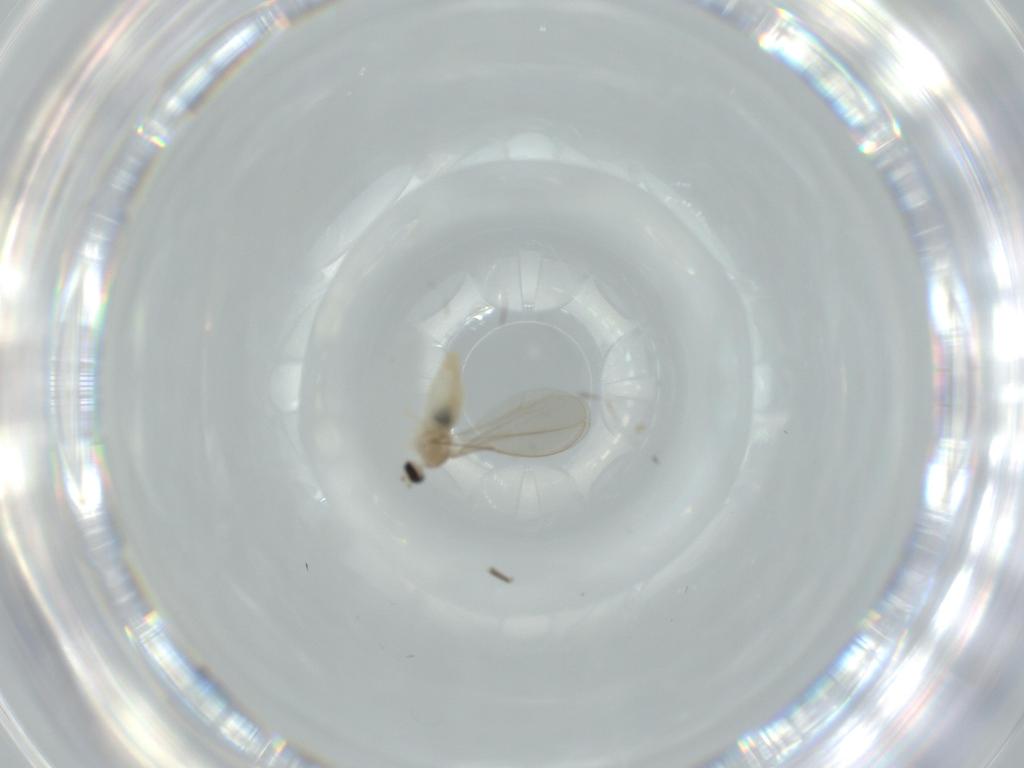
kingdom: Animalia
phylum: Arthropoda
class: Insecta
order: Diptera
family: Cecidomyiidae
